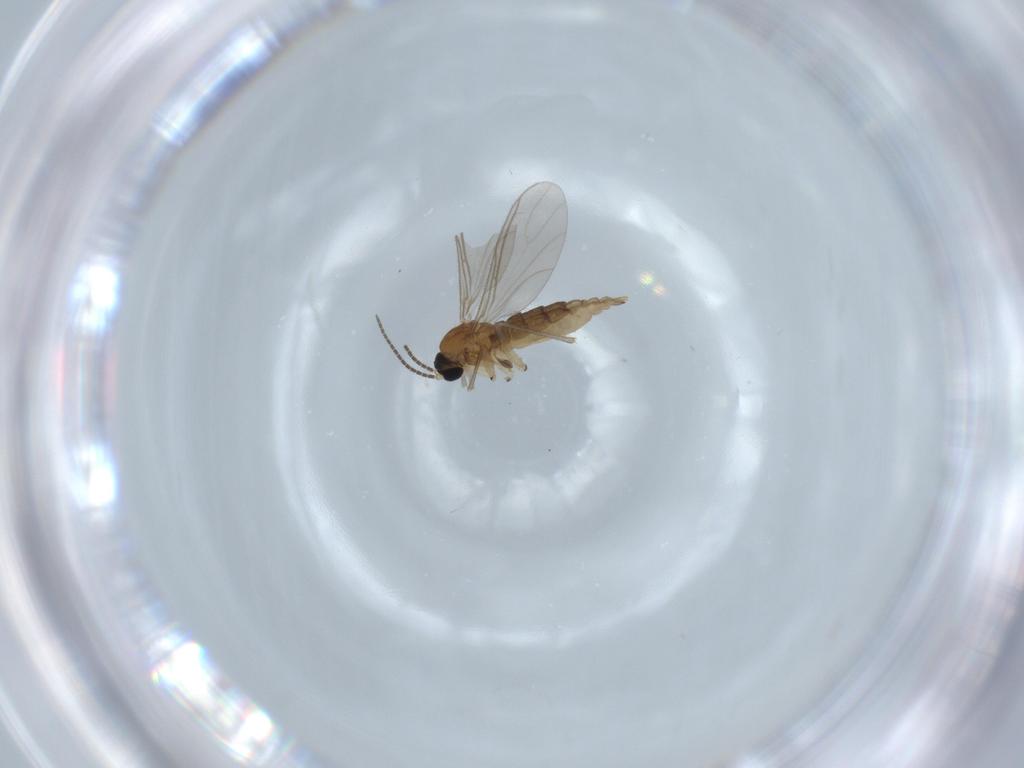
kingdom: Animalia
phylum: Arthropoda
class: Insecta
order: Diptera
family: Sciaridae
